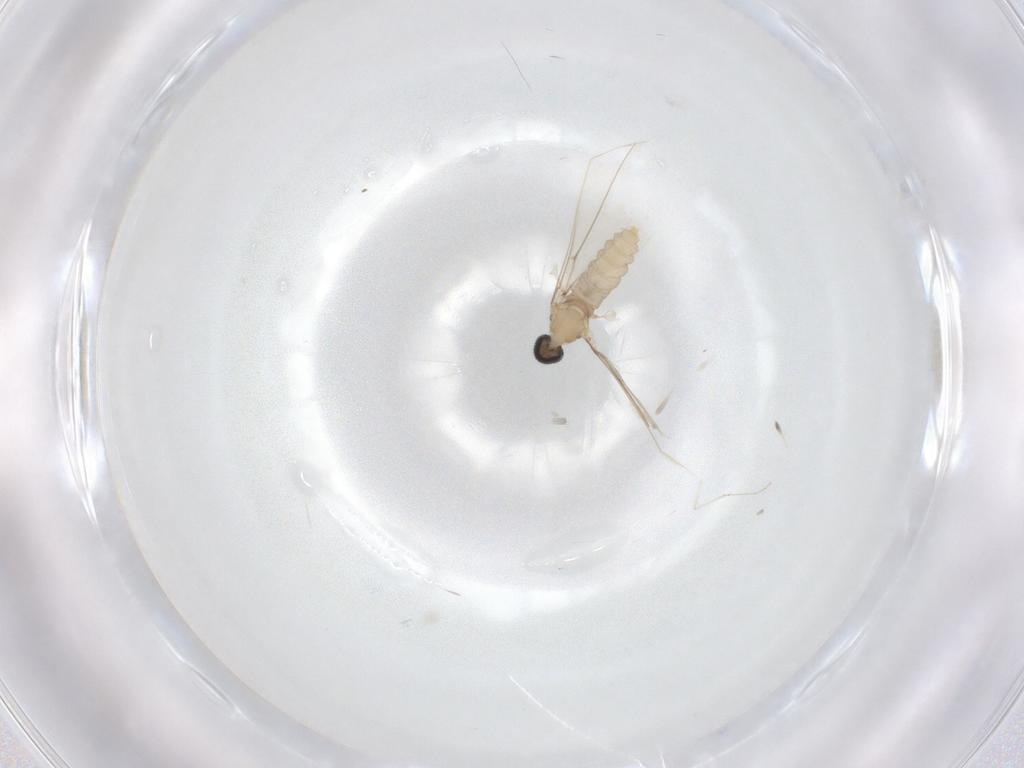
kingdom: Animalia
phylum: Arthropoda
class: Insecta
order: Diptera
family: Cecidomyiidae
